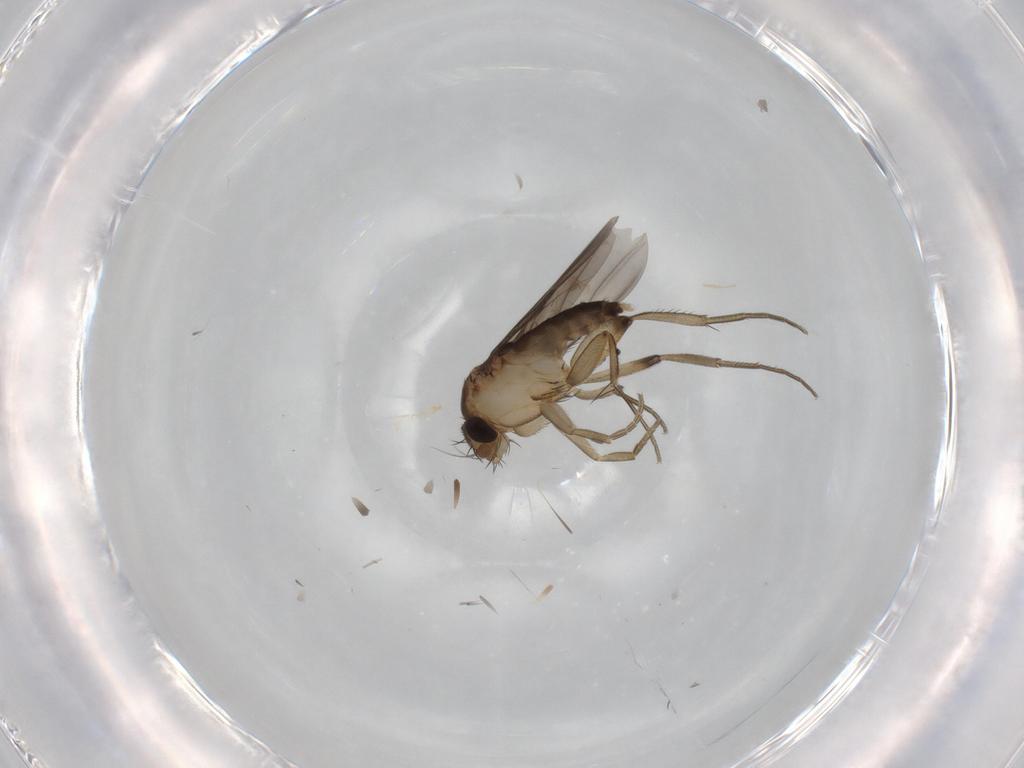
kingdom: Animalia
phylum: Arthropoda
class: Insecta
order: Diptera
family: Phoridae
